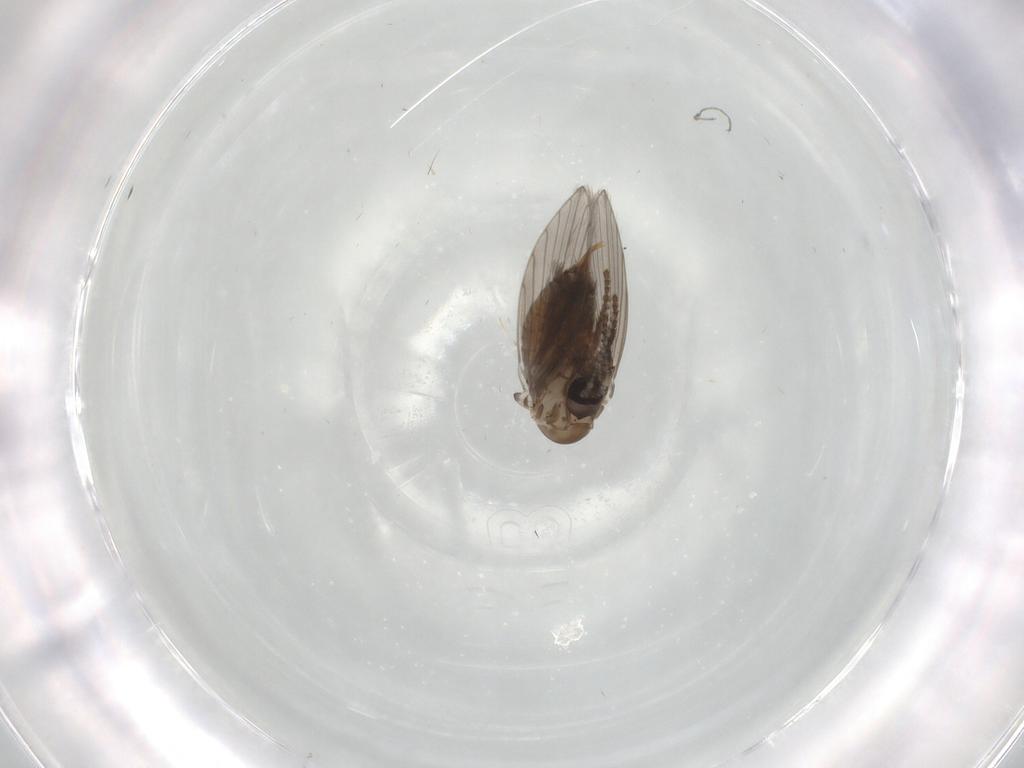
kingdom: Animalia
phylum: Arthropoda
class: Insecta
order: Diptera
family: Psychodidae
